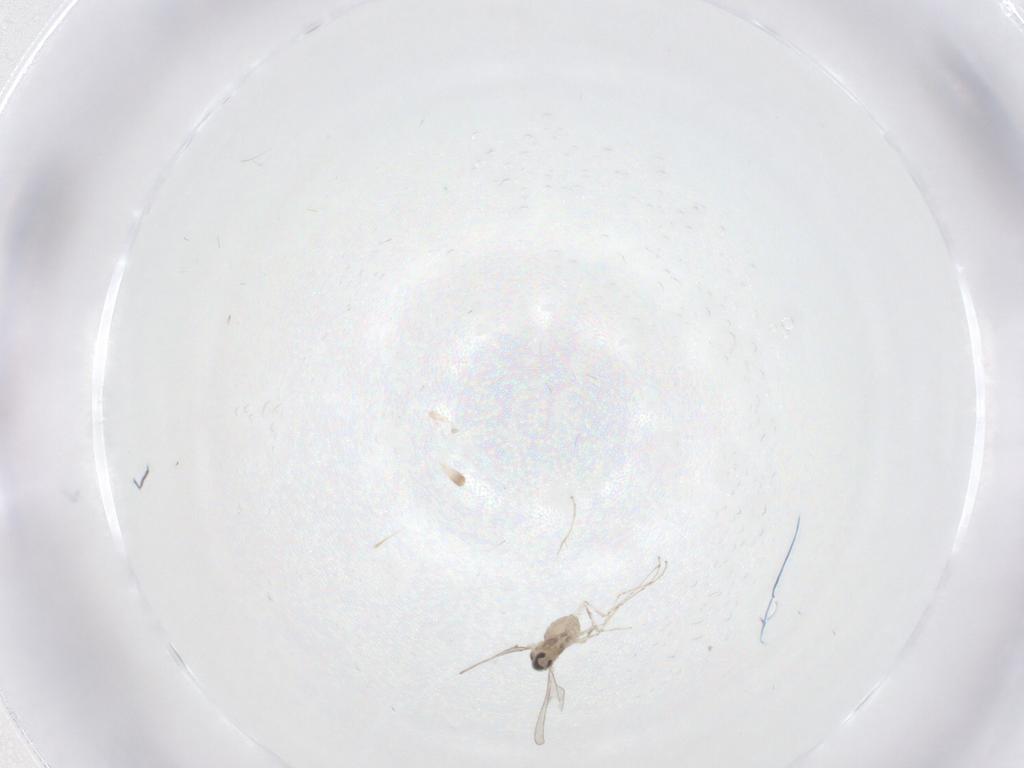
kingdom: Animalia
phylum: Arthropoda
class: Insecta
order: Diptera
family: Cecidomyiidae
